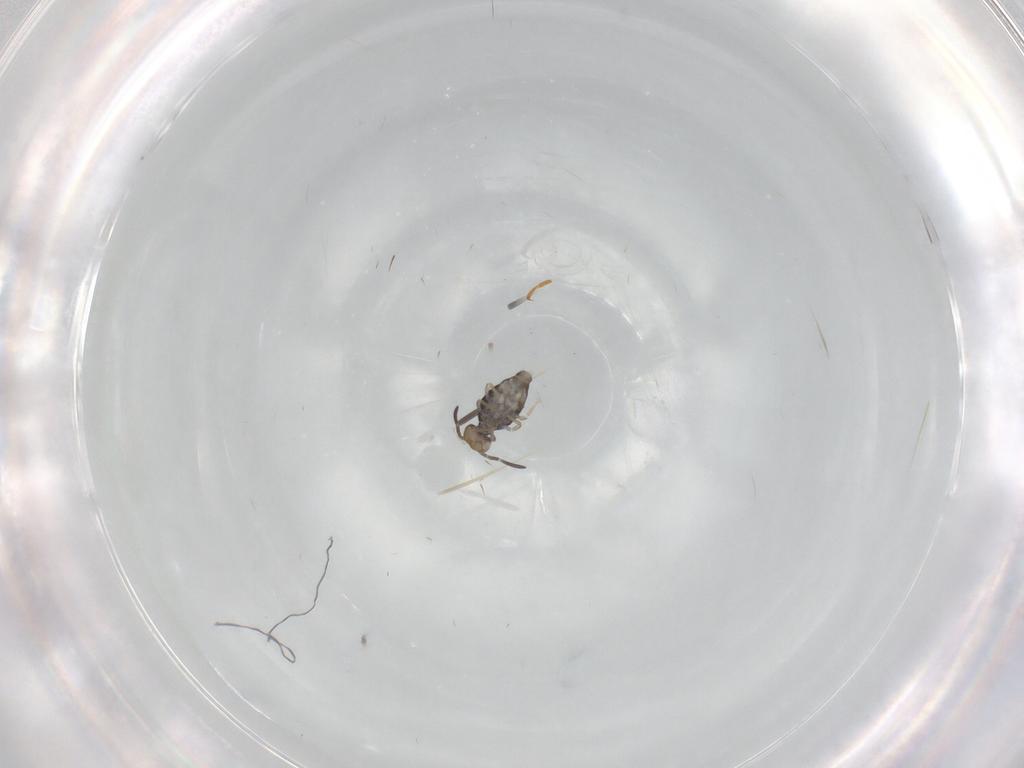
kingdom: Animalia
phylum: Arthropoda
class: Collembola
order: Symphypleona
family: Katiannidae
